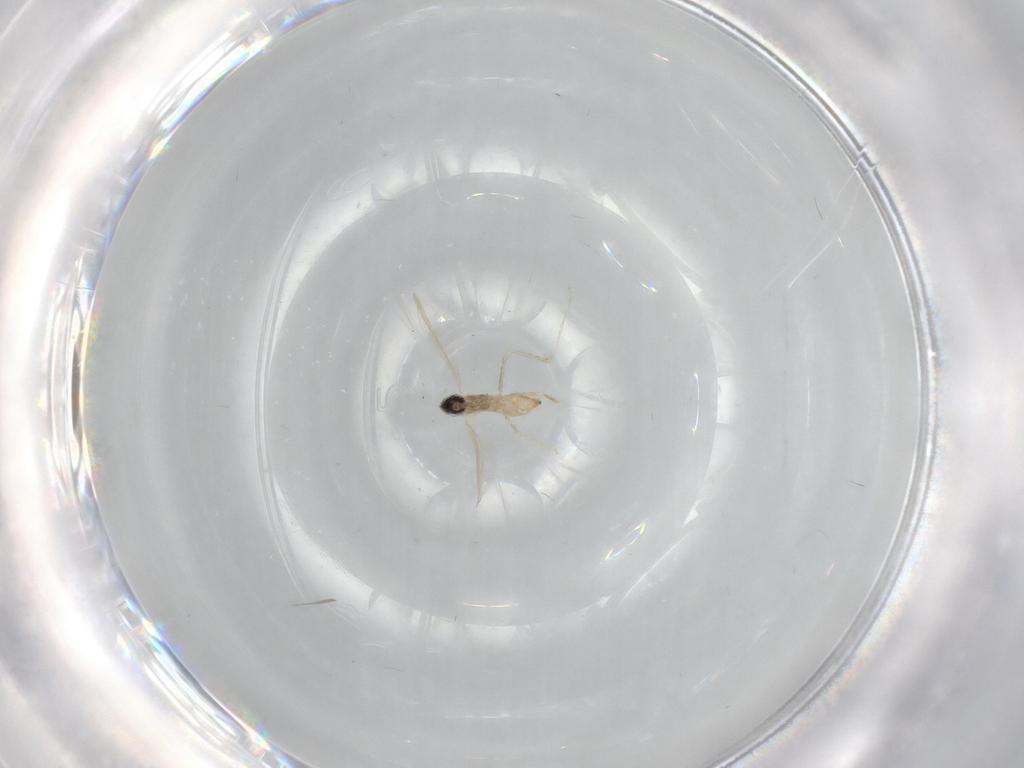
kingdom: Animalia
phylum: Arthropoda
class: Insecta
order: Diptera
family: Cecidomyiidae
